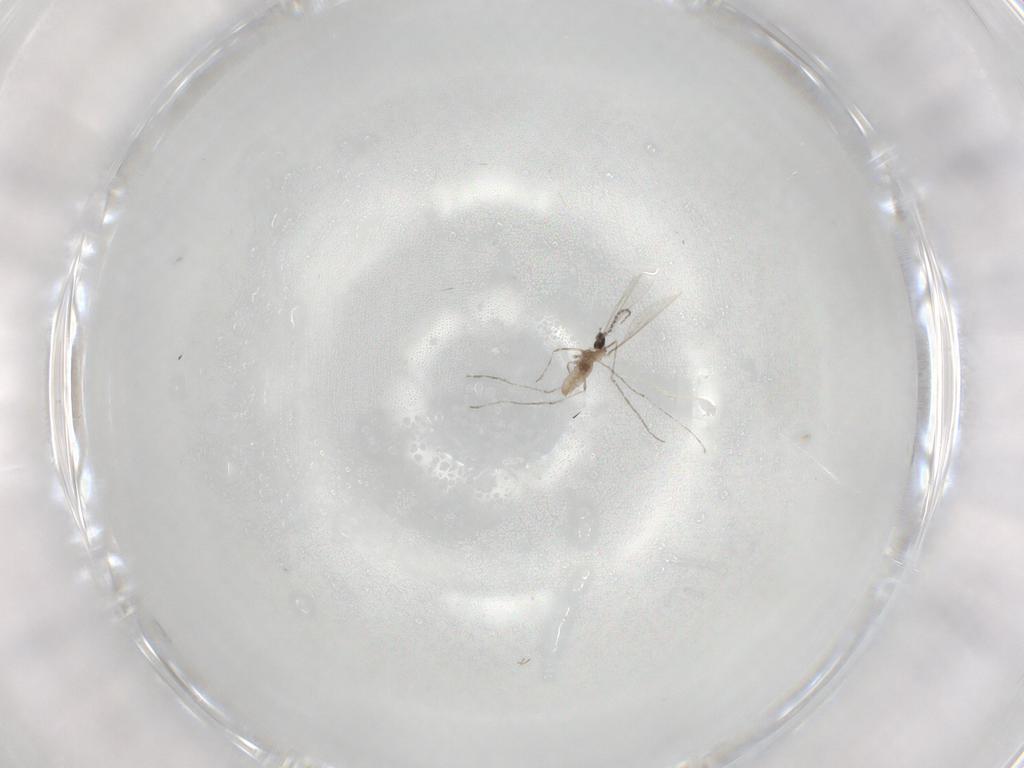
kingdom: Animalia
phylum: Arthropoda
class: Insecta
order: Diptera
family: Cecidomyiidae
